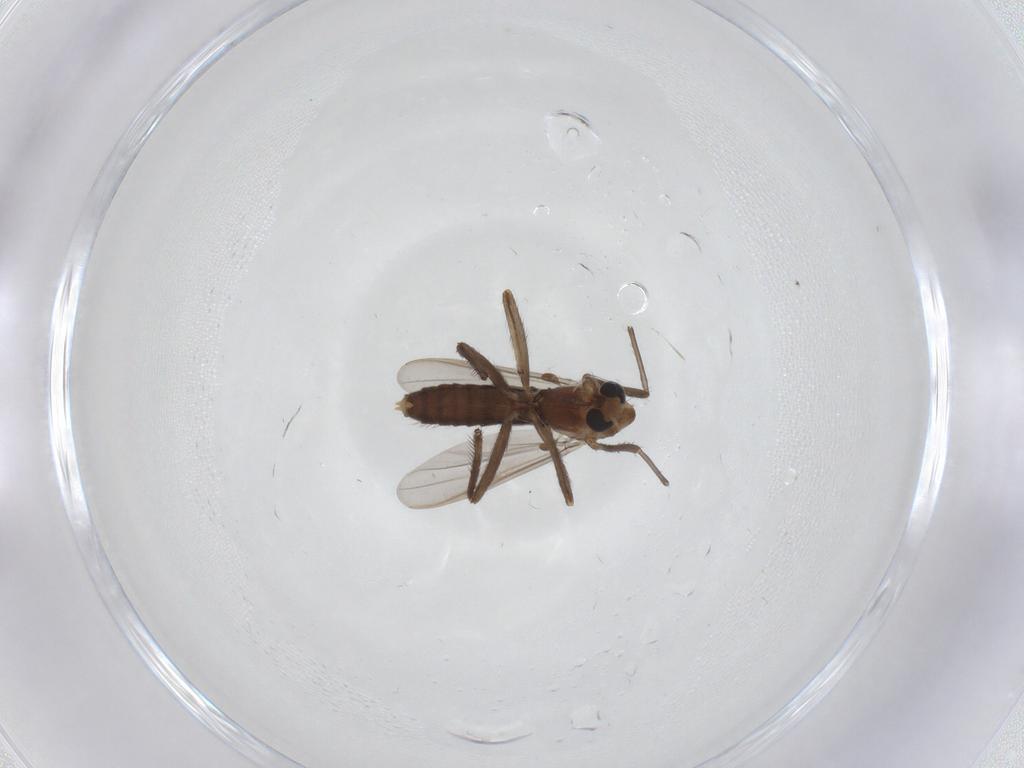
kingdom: Animalia
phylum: Arthropoda
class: Insecta
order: Diptera
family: Chironomidae
